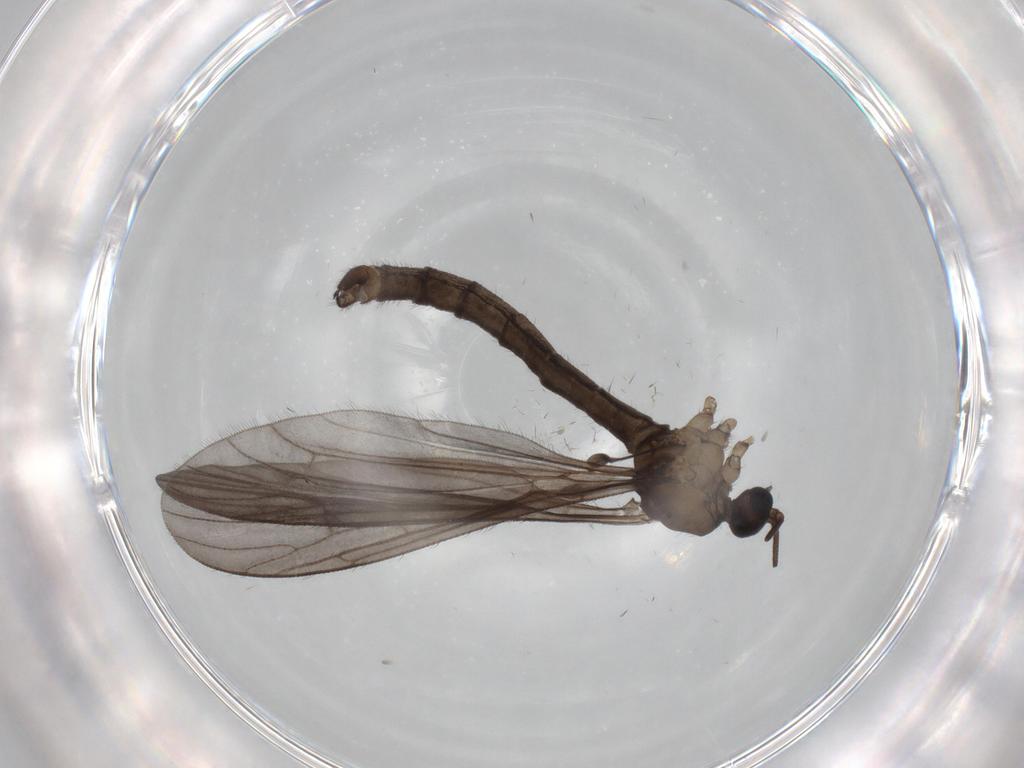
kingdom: Animalia
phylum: Arthropoda
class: Insecta
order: Diptera
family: Limoniidae
